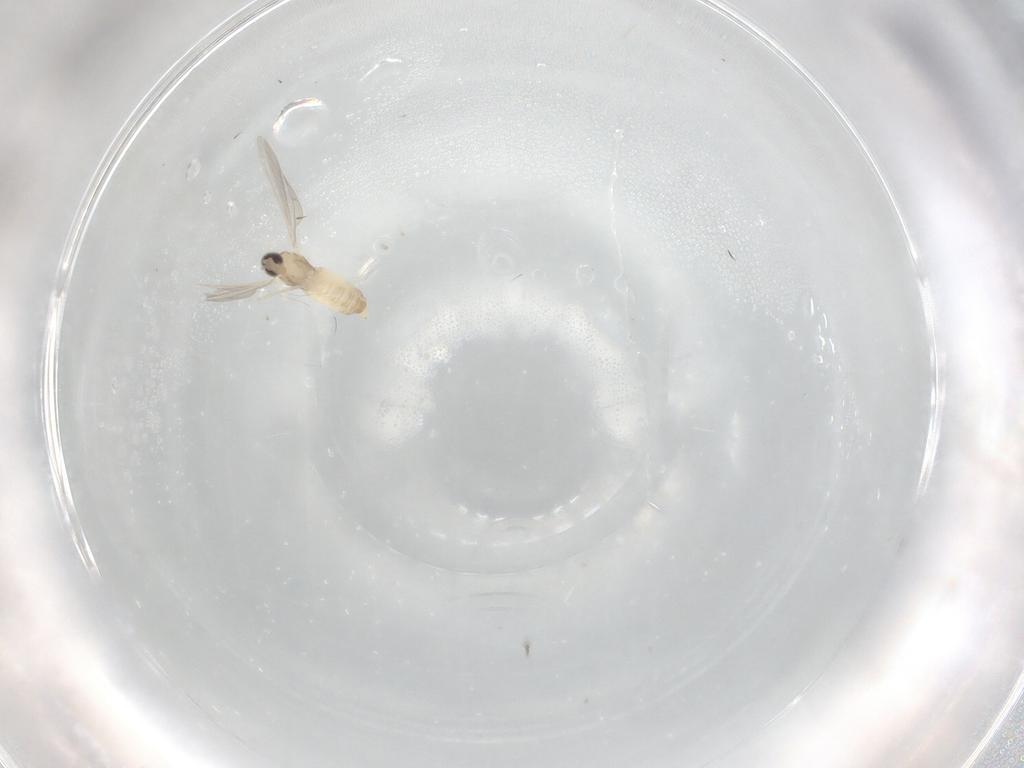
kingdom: Animalia
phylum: Arthropoda
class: Insecta
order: Diptera
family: Cecidomyiidae
